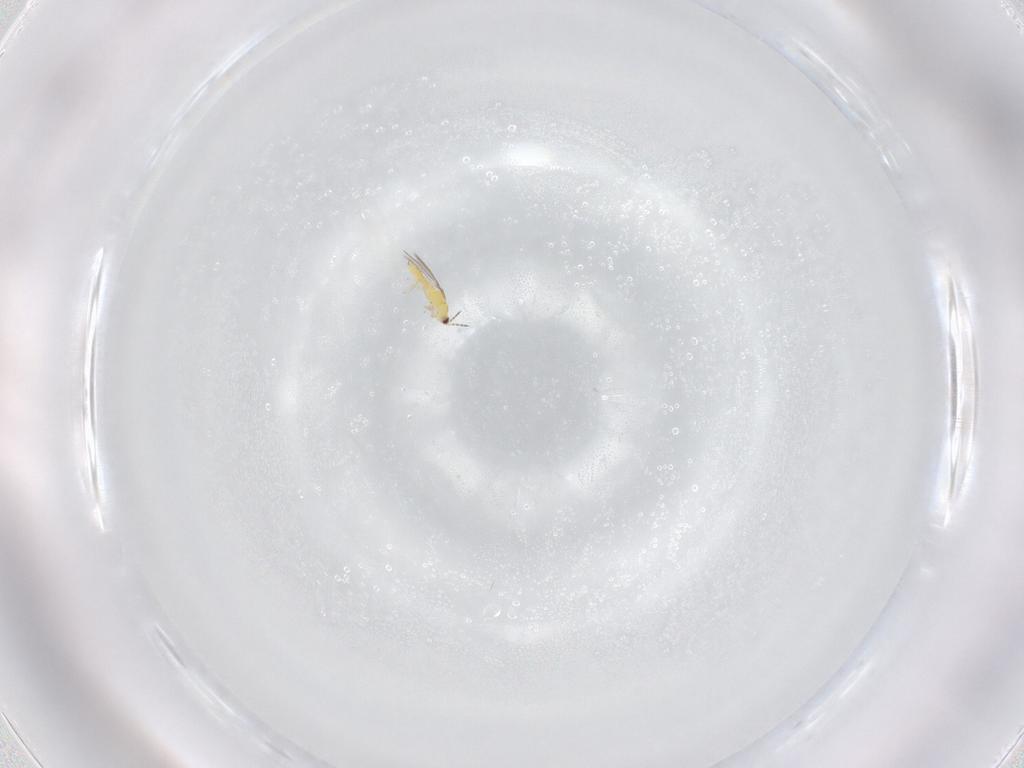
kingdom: Animalia
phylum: Arthropoda
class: Insecta
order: Thysanoptera
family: Thripidae
